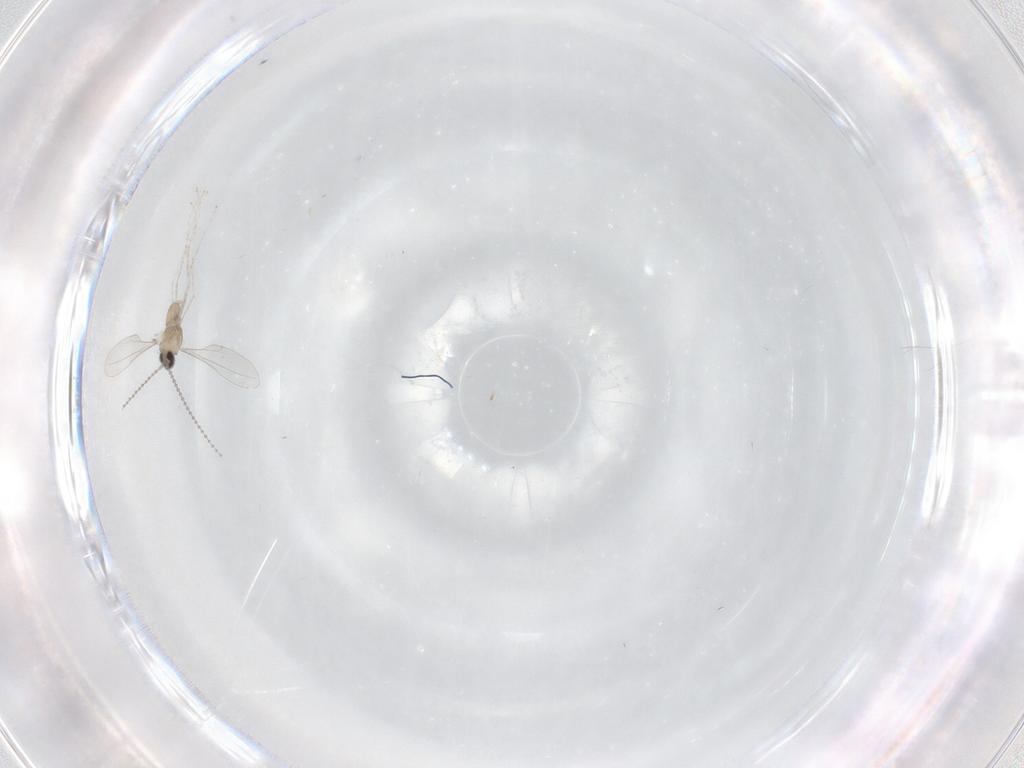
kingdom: Animalia
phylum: Arthropoda
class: Insecta
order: Diptera
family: Cecidomyiidae
